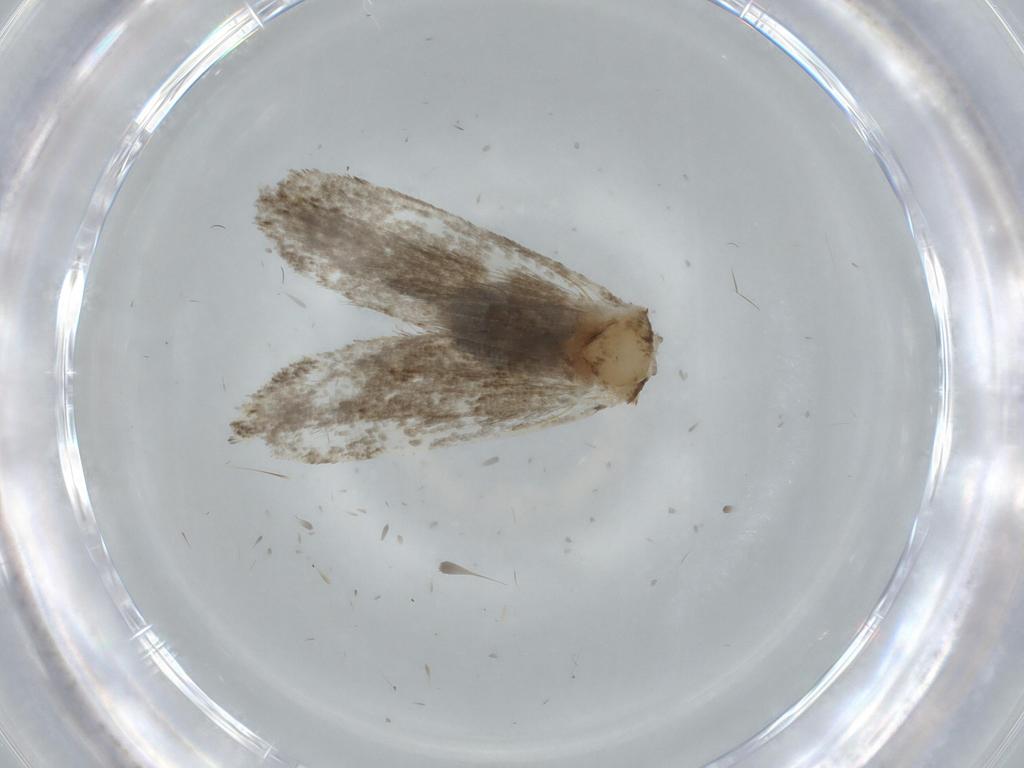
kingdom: Animalia
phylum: Arthropoda
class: Insecta
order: Lepidoptera
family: Tineidae
